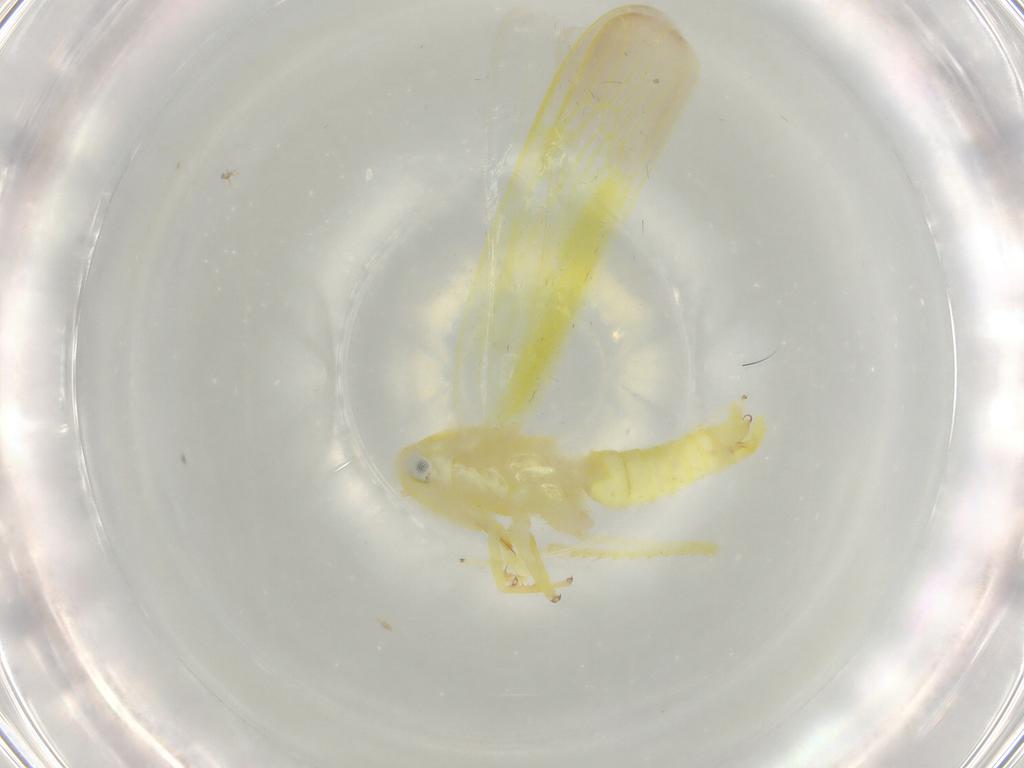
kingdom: Animalia
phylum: Arthropoda
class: Insecta
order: Hemiptera
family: Cicadellidae
